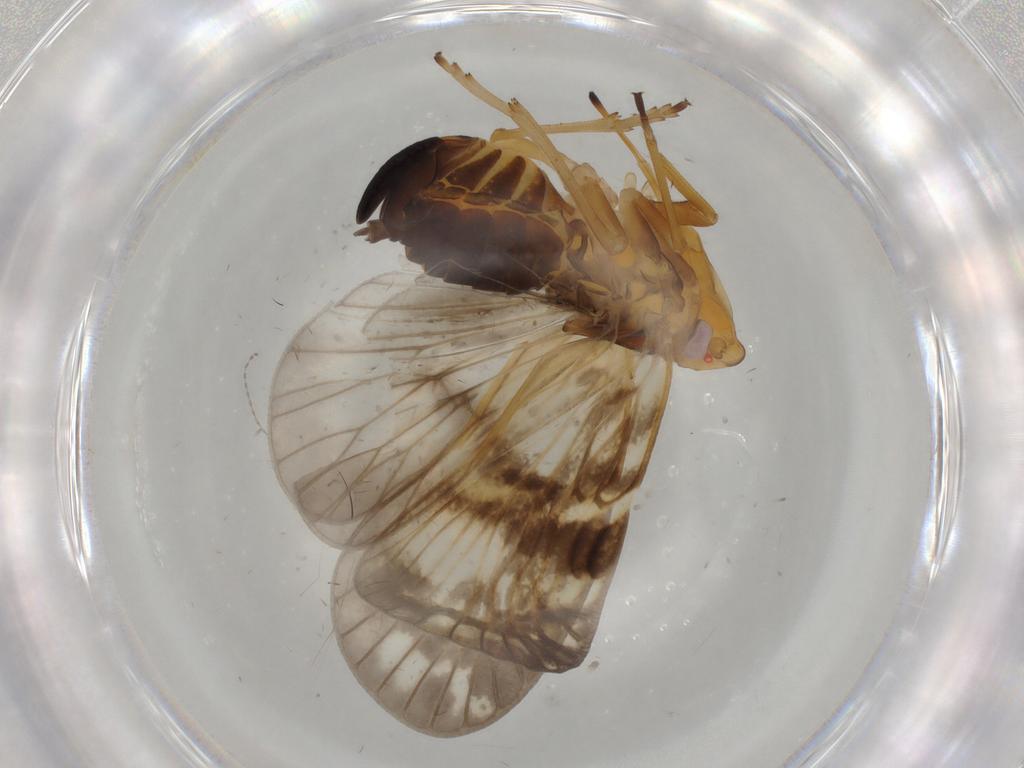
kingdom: Animalia
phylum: Arthropoda
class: Insecta
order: Hemiptera
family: Cixiidae
